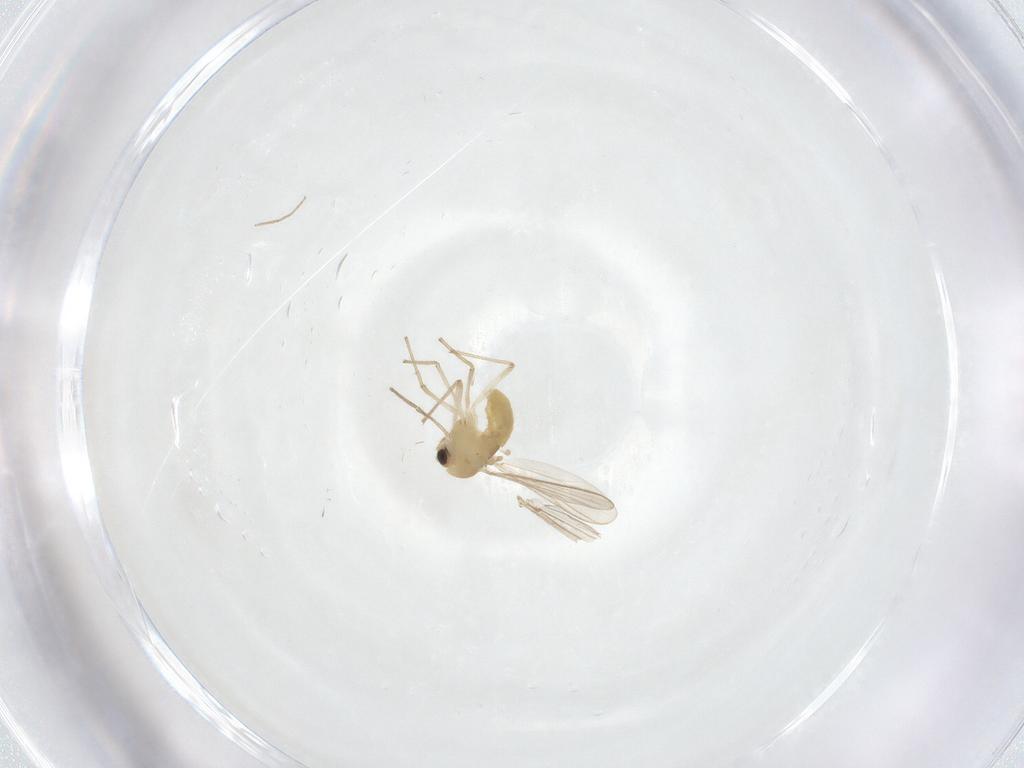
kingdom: Animalia
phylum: Arthropoda
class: Insecta
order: Diptera
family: Chironomidae
